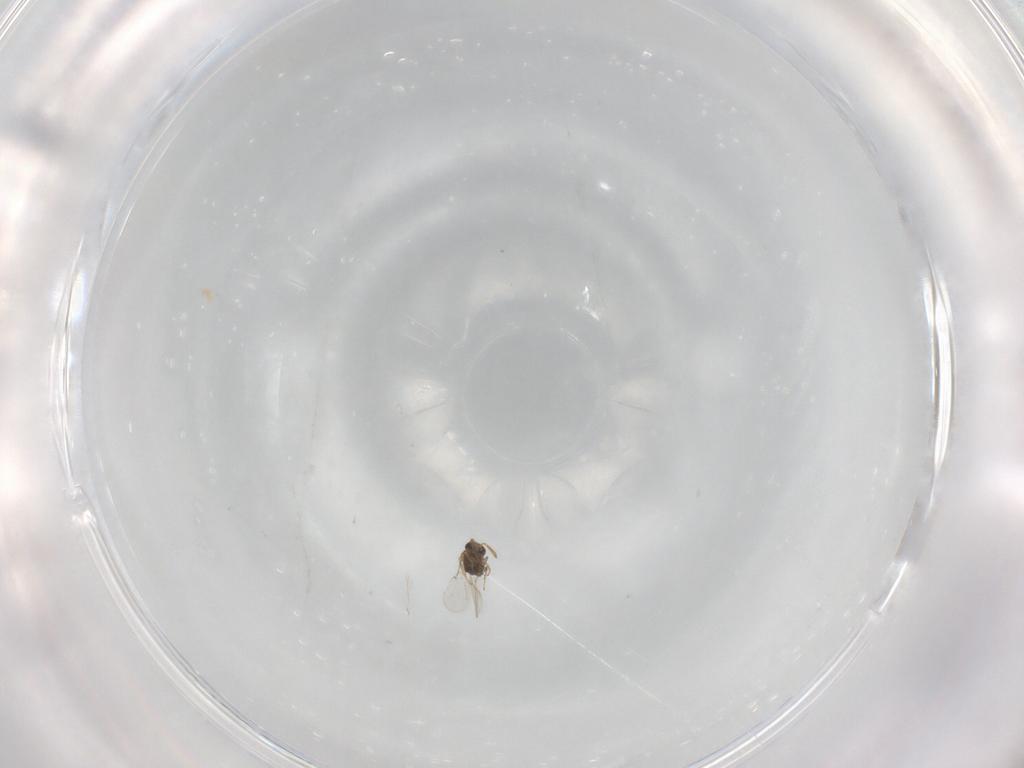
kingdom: Animalia
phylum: Arthropoda
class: Insecta
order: Hymenoptera
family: Encyrtidae
